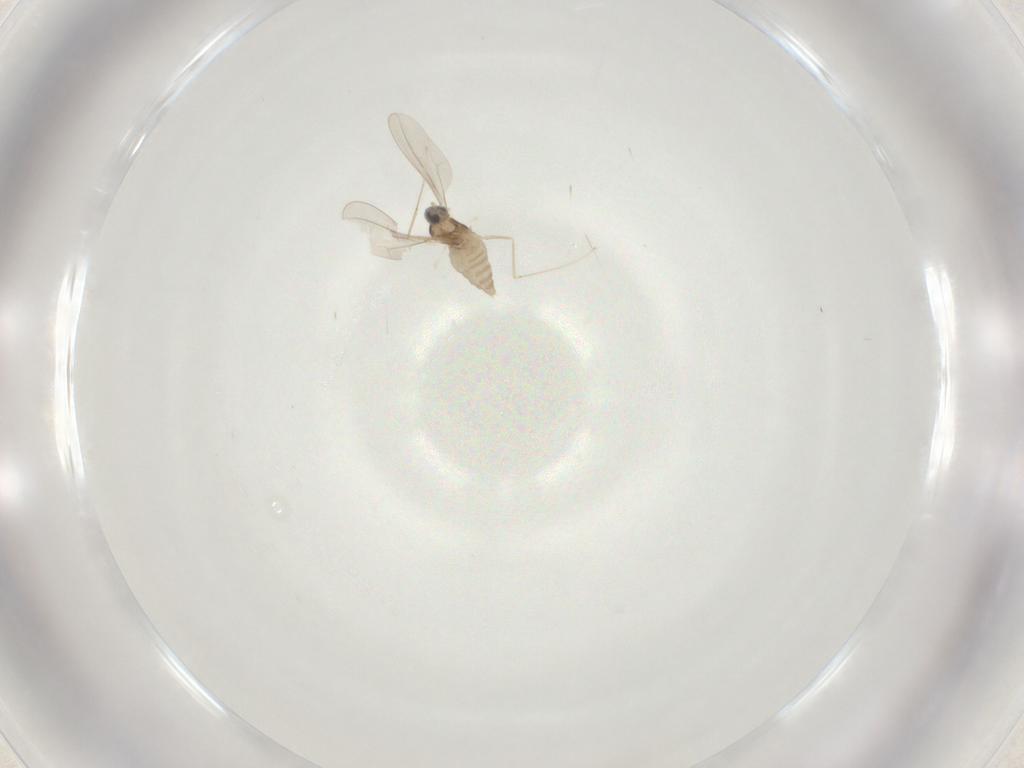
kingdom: Animalia
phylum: Arthropoda
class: Insecta
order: Diptera
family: Cecidomyiidae
